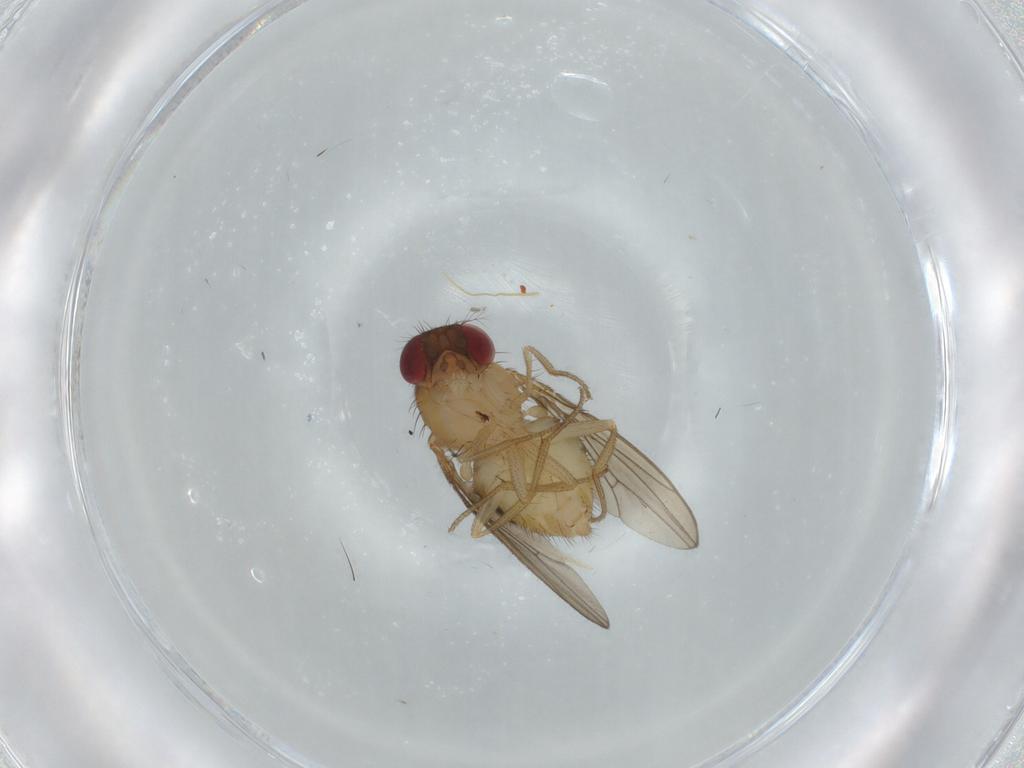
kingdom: Animalia
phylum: Arthropoda
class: Insecta
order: Diptera
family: Drosophilidae
